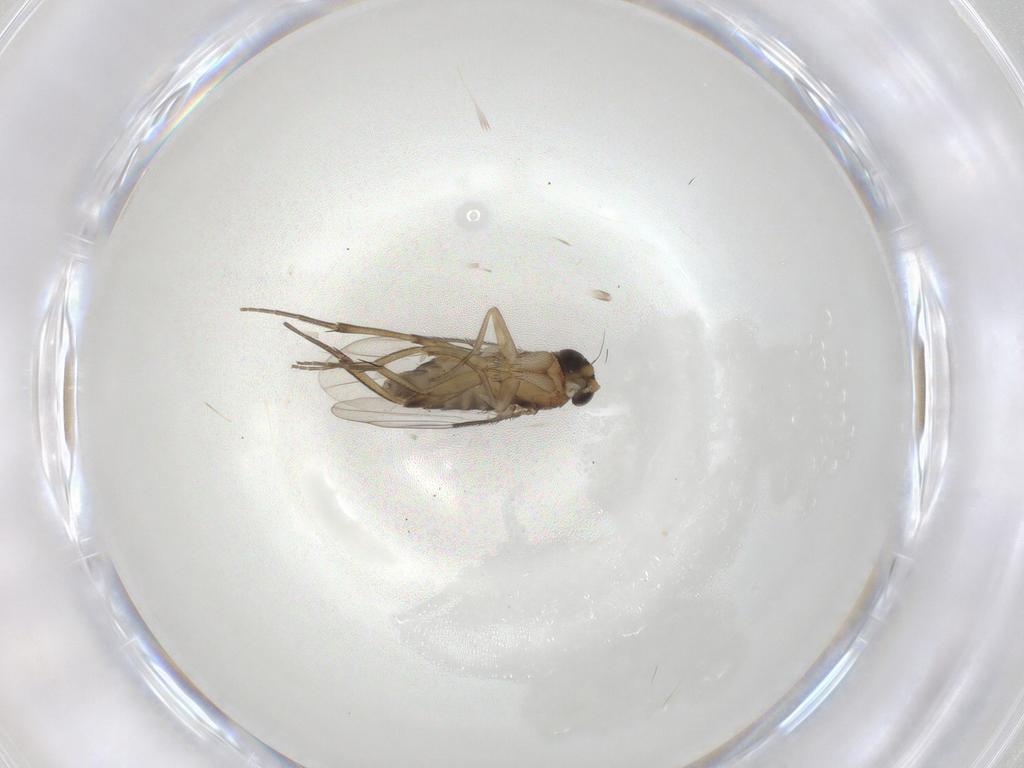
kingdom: Animalia
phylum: Arthropoda
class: Insecta
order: Diptera
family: Phoridae
